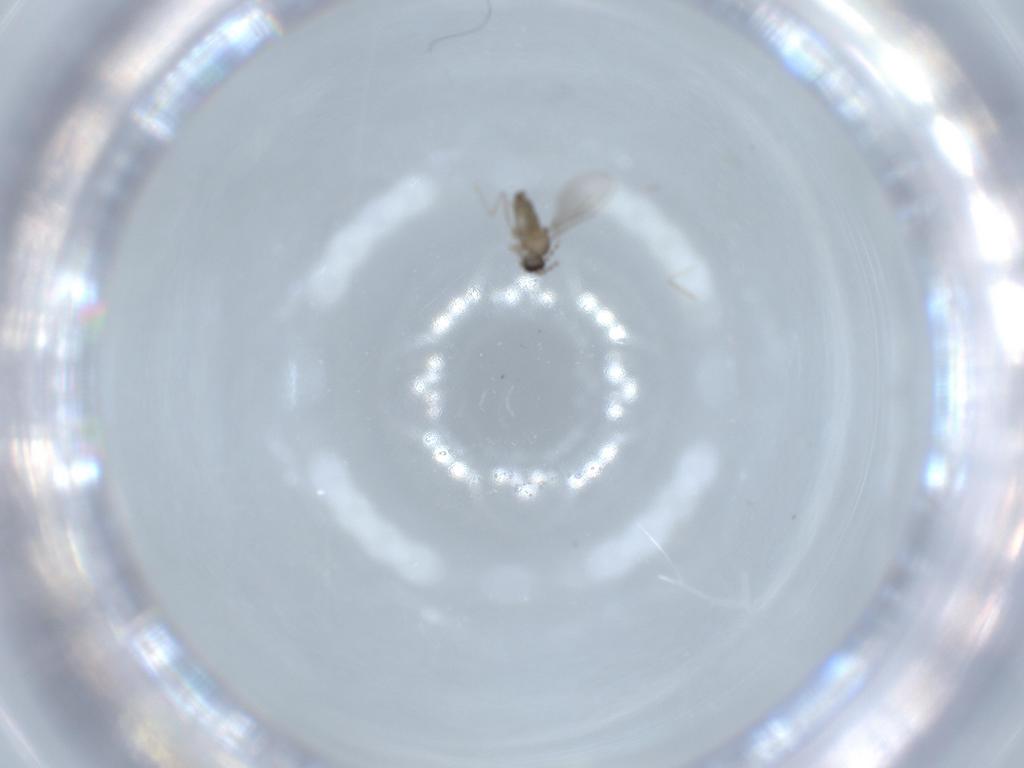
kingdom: Animalia
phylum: Arthropoda
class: Insecta
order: Diptera
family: Cecidomyiidae
